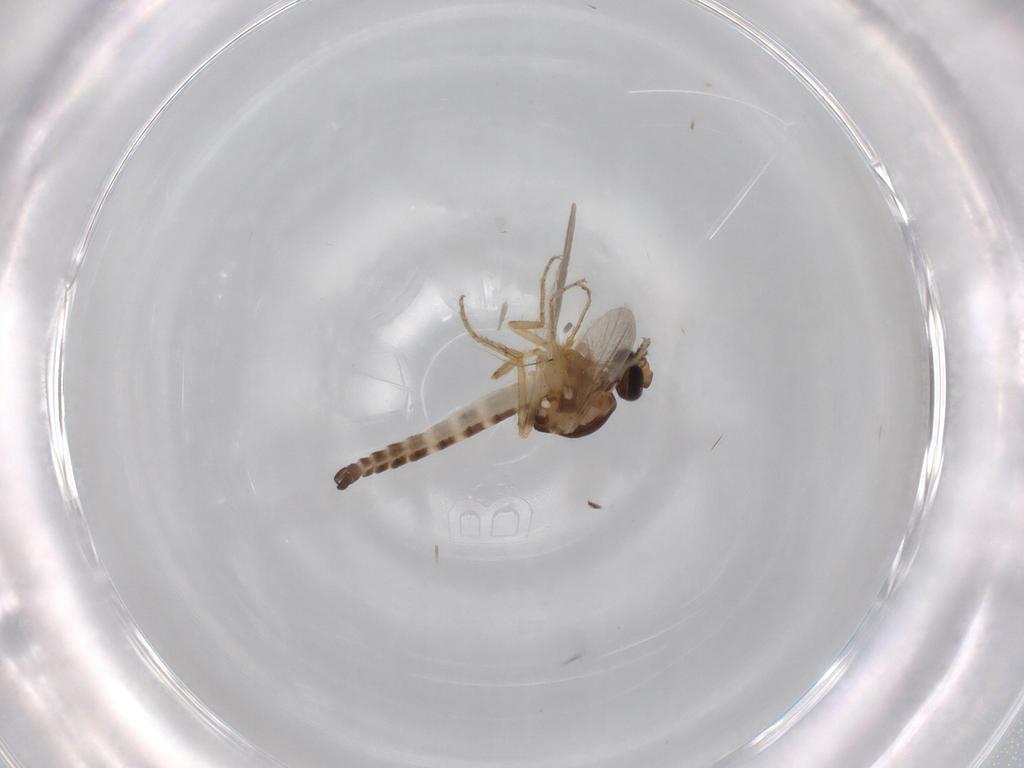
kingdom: Animalia
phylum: Arthropoda
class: Insecta
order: Diptera
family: Ceratopogonidae
